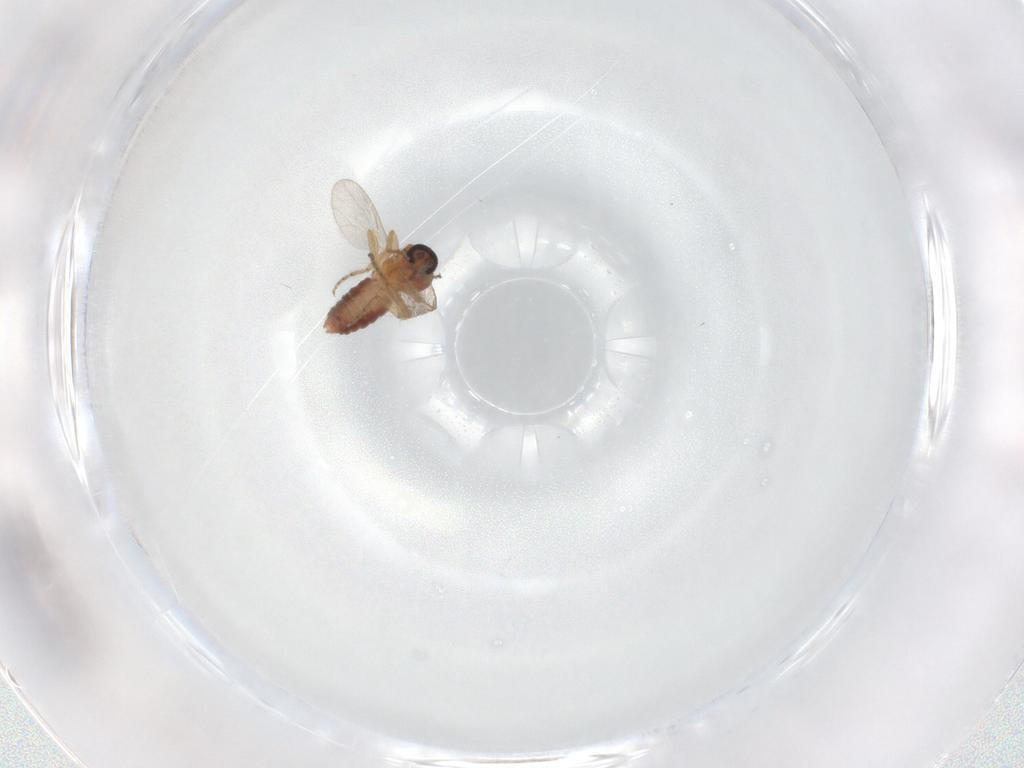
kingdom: Animalia
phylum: Arthropoda
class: Insecta
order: Diptera
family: Ceratopogonidae
